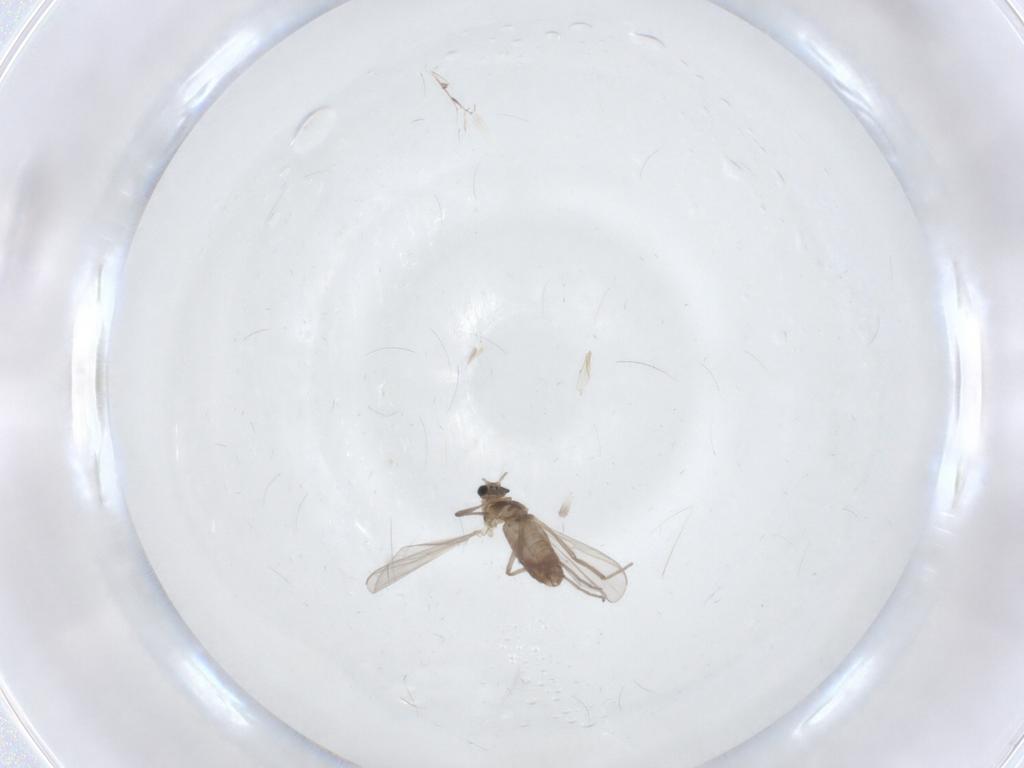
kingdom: Animalia
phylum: Arthropoda
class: Insecta
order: Diptera
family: Chironomidae
